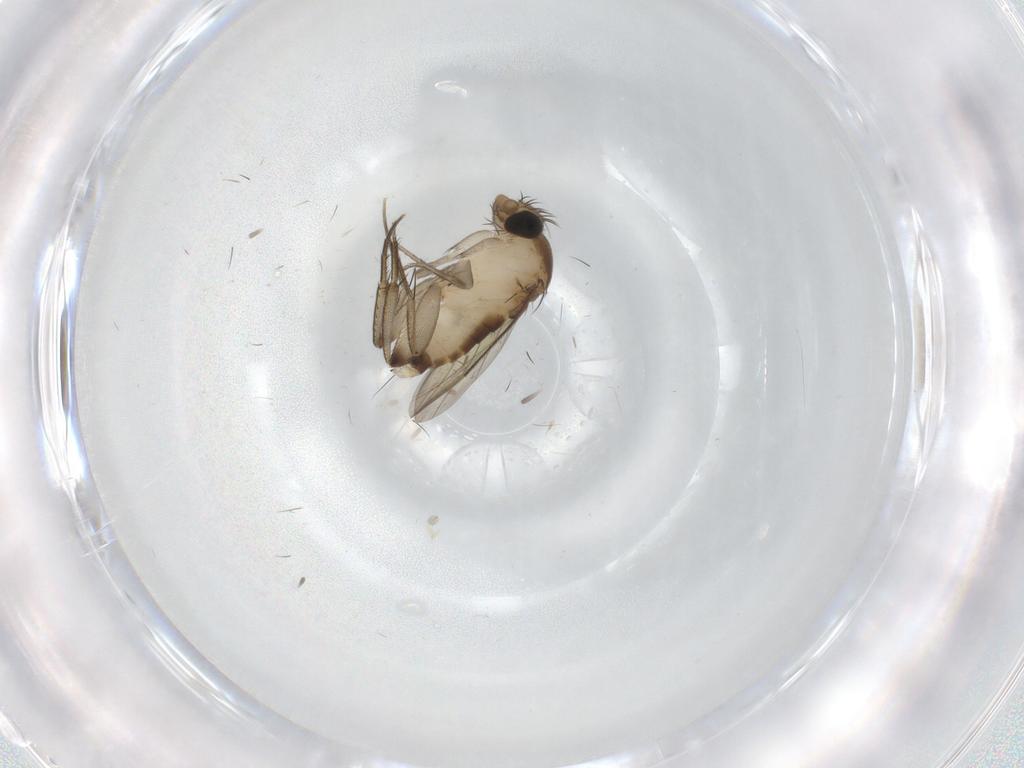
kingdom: Animalia
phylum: Arthropoda
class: Insecta
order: Diptera
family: Phoridae
